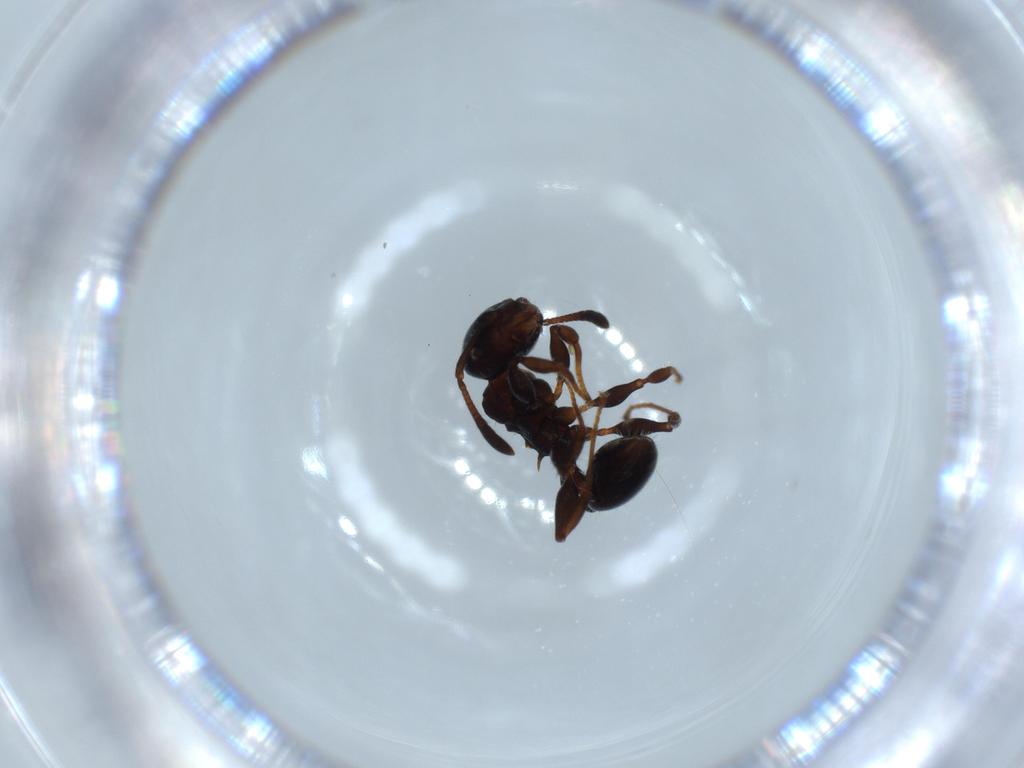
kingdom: Animalia
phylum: Arthropoda
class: Insecta
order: Hymenoptera
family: Formicidae
